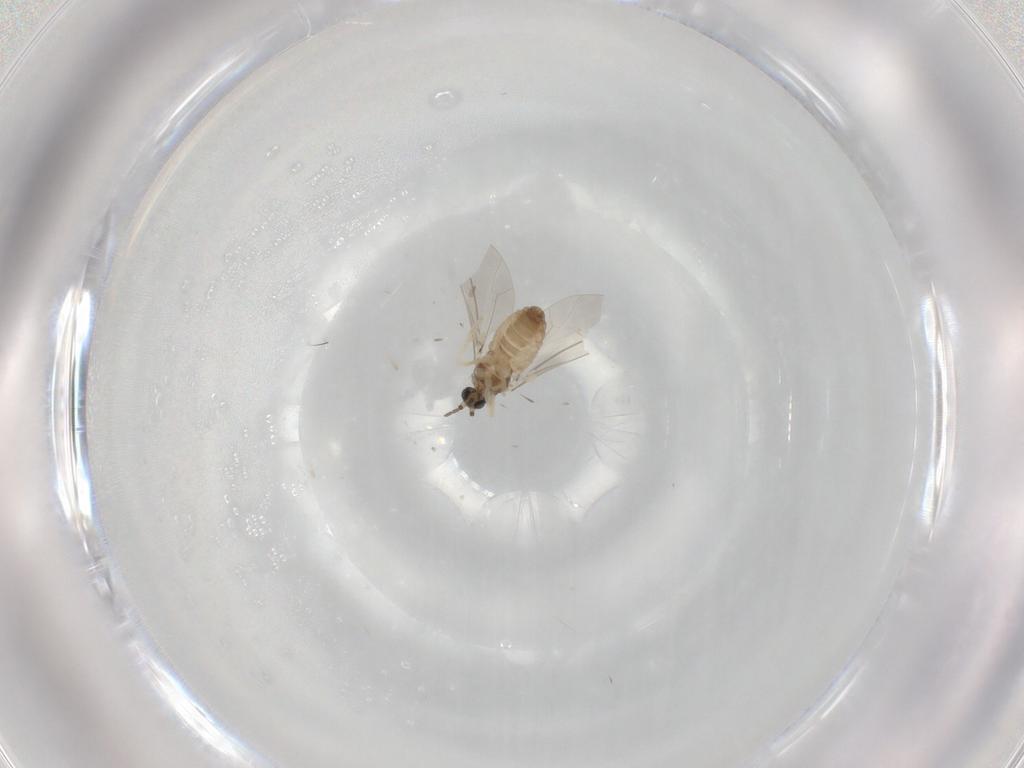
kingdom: Animalia
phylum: Arthropoda
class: Insecta
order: Diptera
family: Cecidomyiidae
